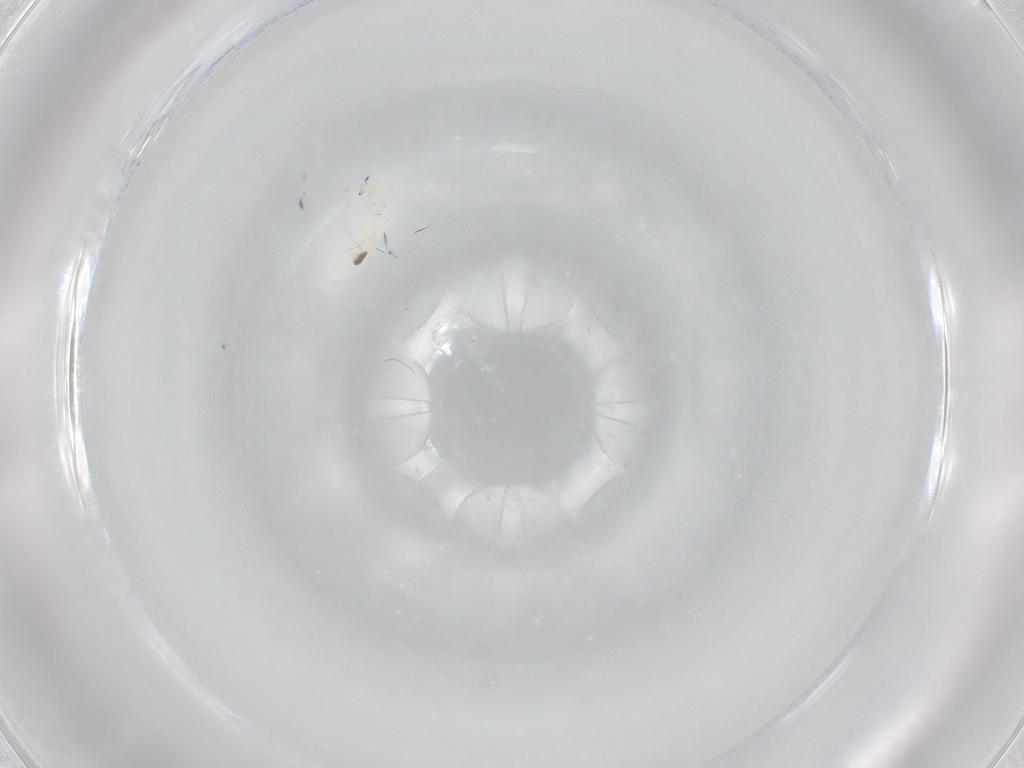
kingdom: Animalia
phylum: Arthropoda
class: Collembola
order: Entomobryomorpha
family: Entomobryidae
